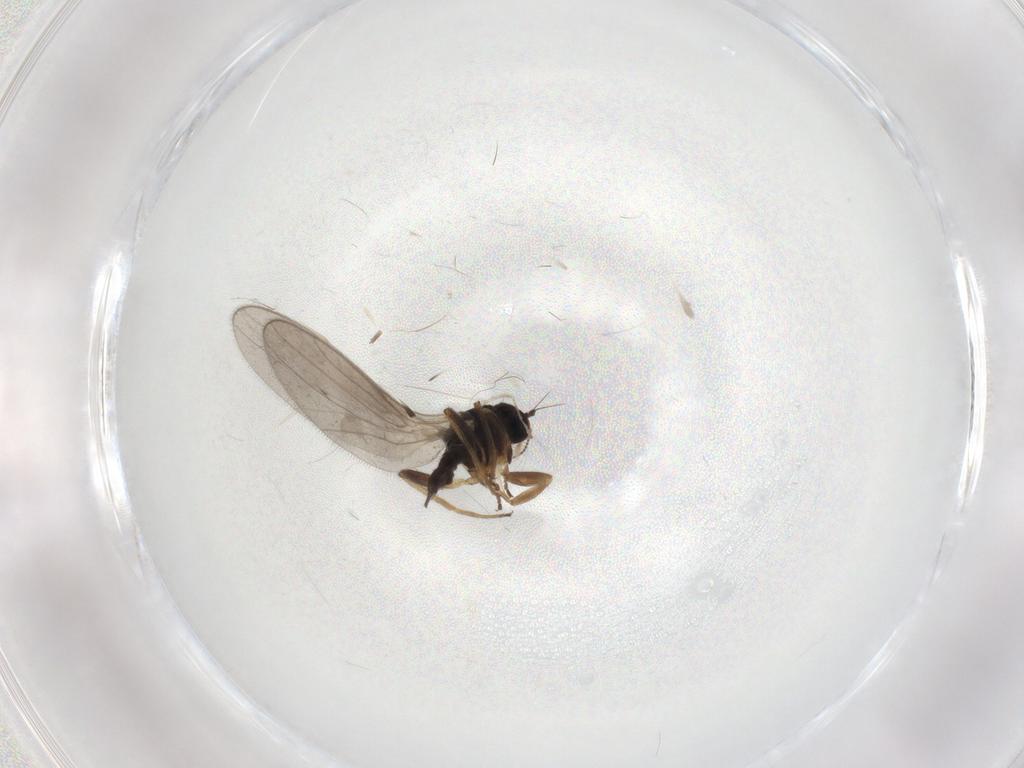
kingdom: Animalia
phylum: Arthropoda
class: Insecta
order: Diptera
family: Hybotidae
